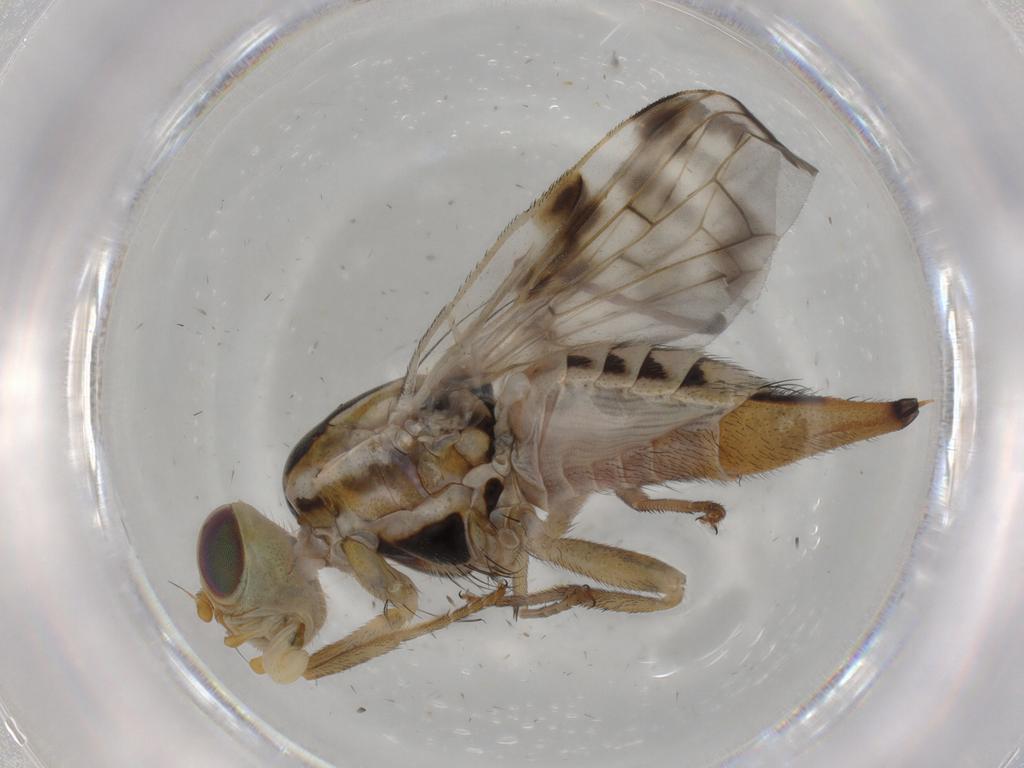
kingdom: Animalia
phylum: Arthropoda
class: Insecta
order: Diptera
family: Tephritidae
